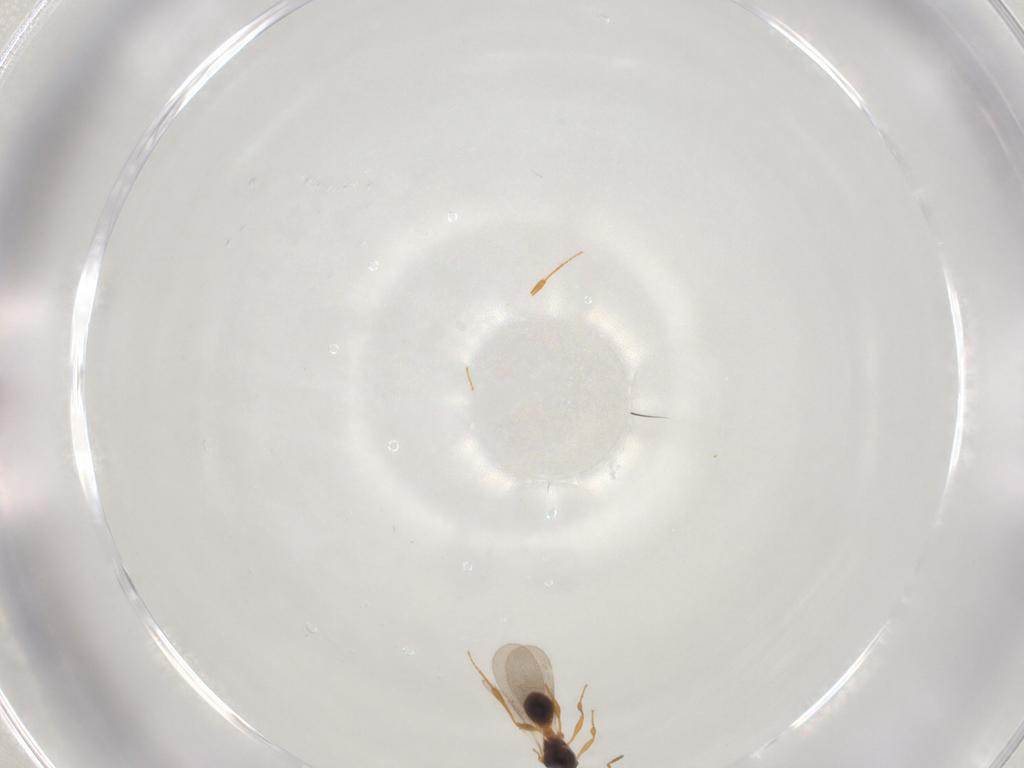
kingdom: Animalia
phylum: Arthropoda
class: Insecta
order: Hymenoptera
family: Platygastridae
